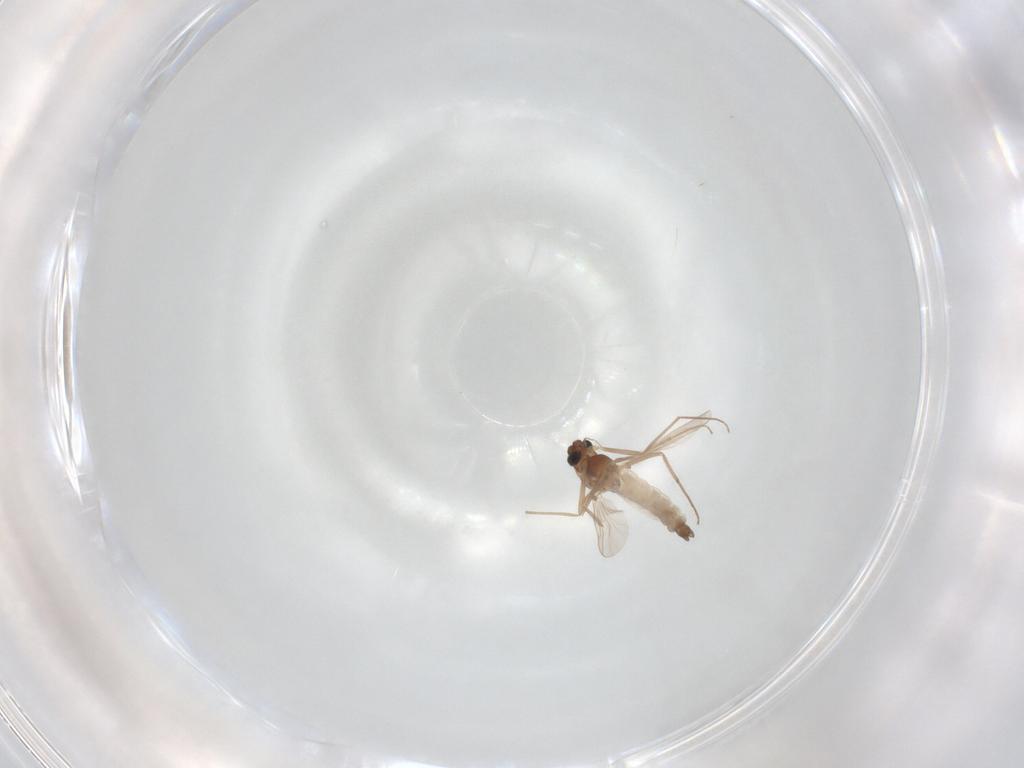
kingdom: Animalia
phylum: Arthropoda
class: Insecta
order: Diptera
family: Chironomidae
